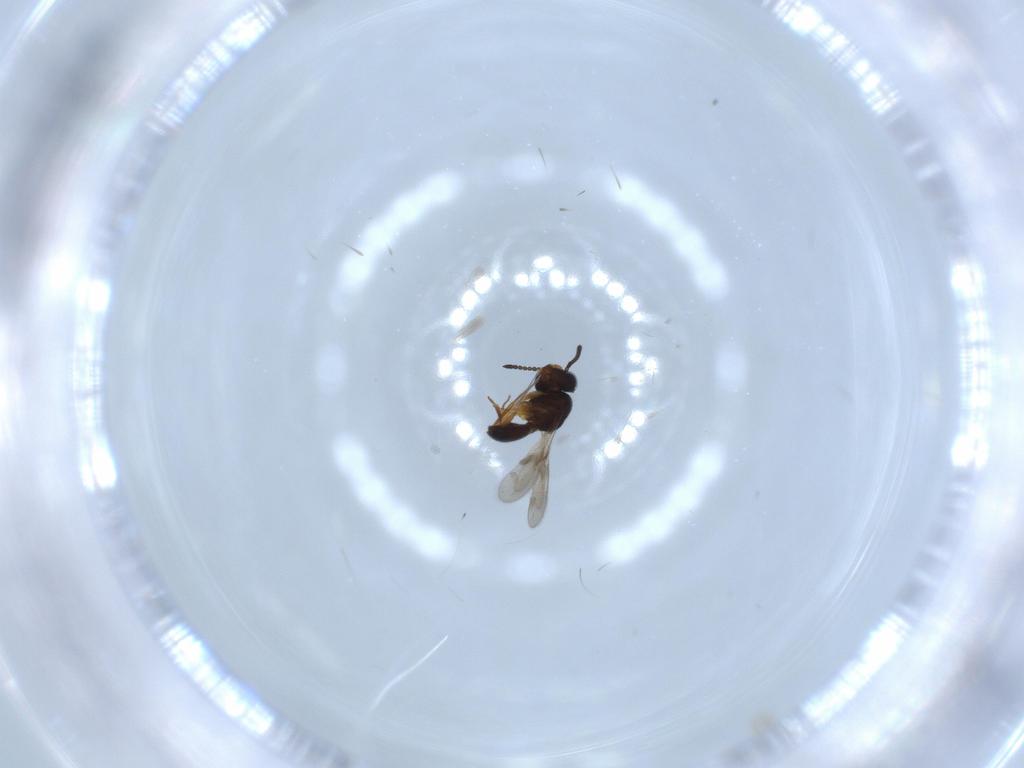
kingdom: Animalia
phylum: Arthropoda
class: Arachnida
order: Araneae
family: Pholcidae
